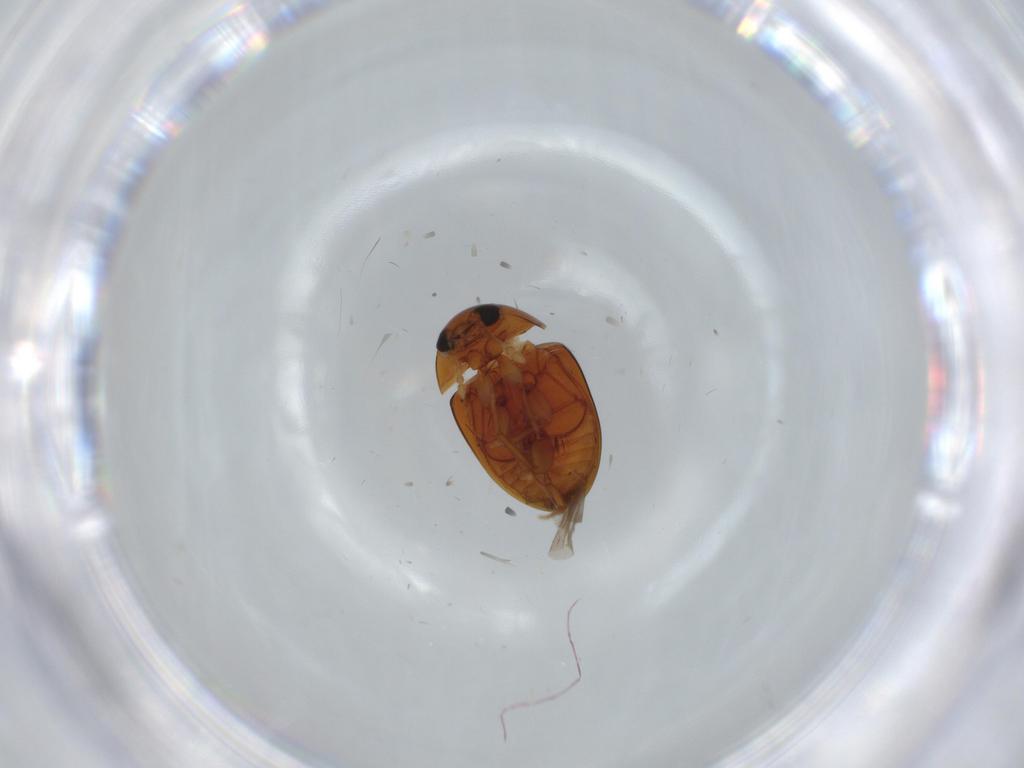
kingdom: Animalia
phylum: Arthropoda
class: Insecta
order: Coleoptera
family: Phalacridae
